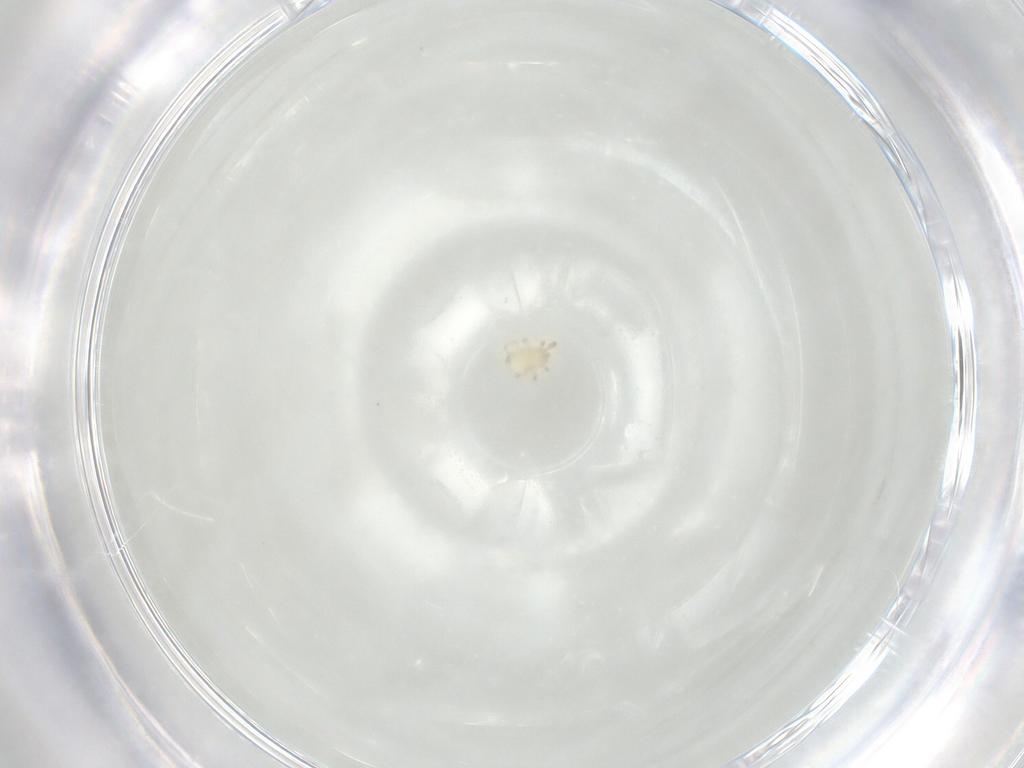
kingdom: Animalia
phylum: Arthropoda
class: Arachnida
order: Mesostigmata
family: Phytoseiidae
